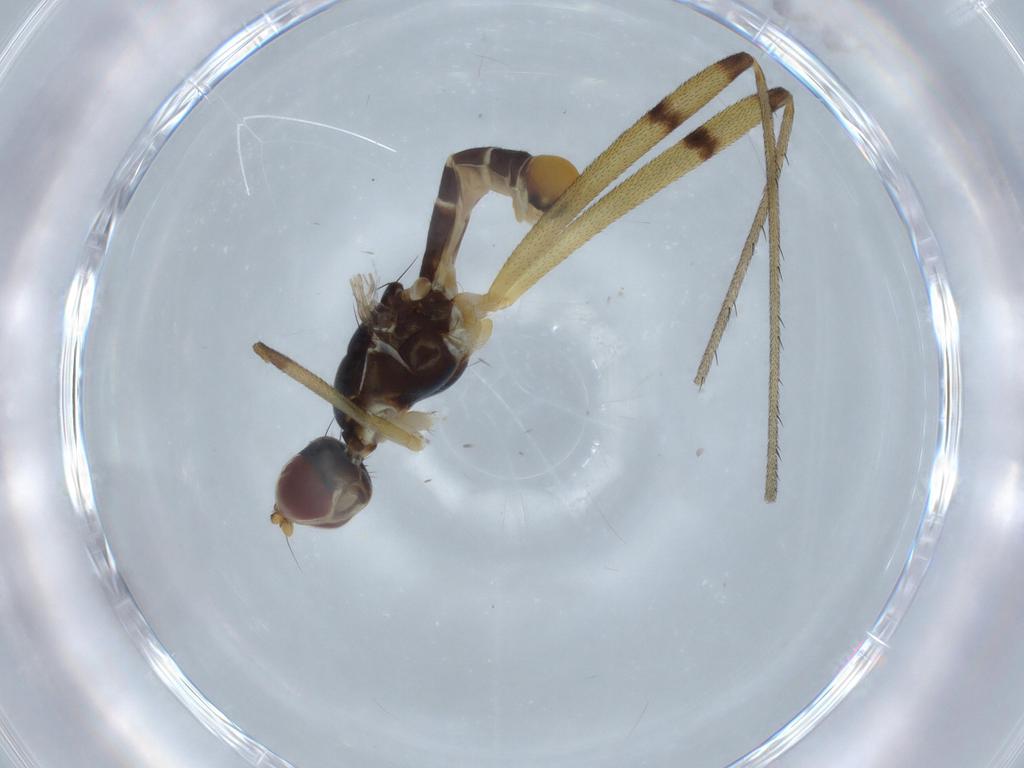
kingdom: Animalia
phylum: Arthropoda
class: Insecta
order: Diptera
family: Micropezidae
